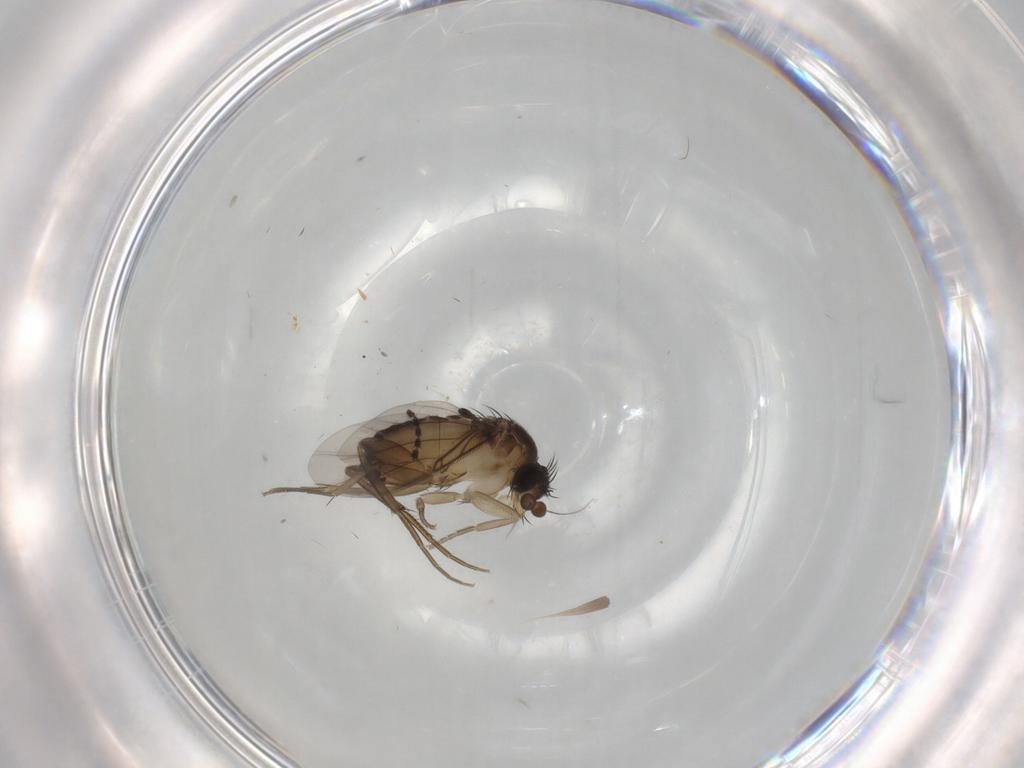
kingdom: Animalia
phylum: Arthropoda
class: Insecta
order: Diptera
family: Phoridae
